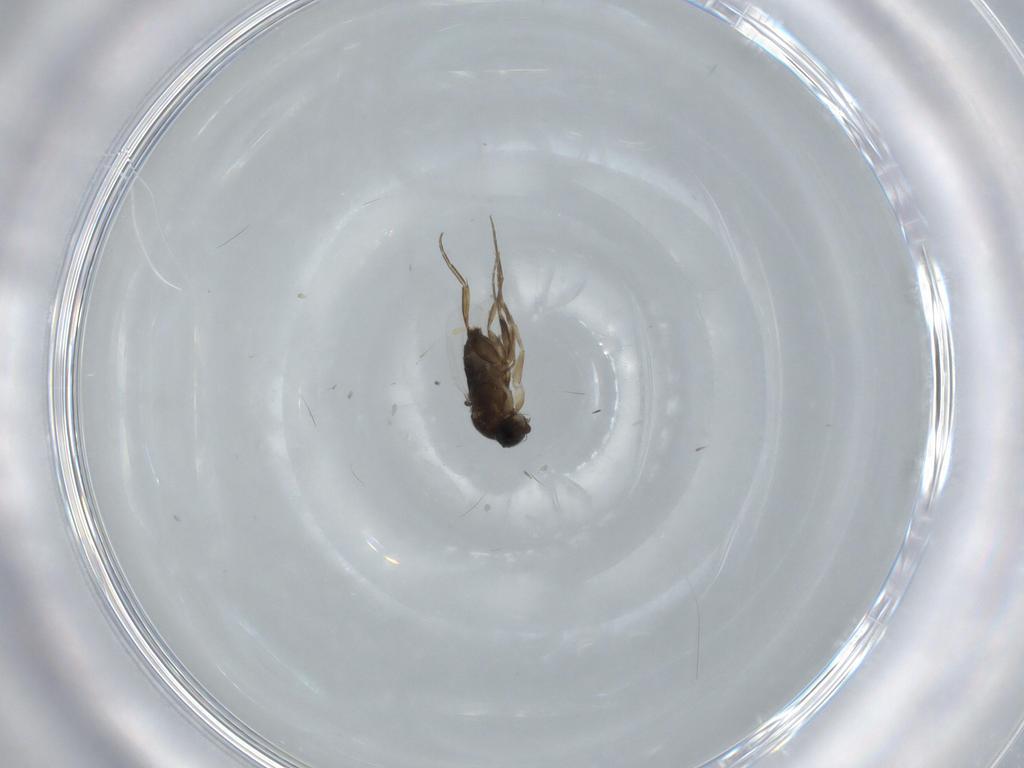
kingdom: Animalia
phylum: Arthropoda
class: Insecta
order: Diptera
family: Phoridae
